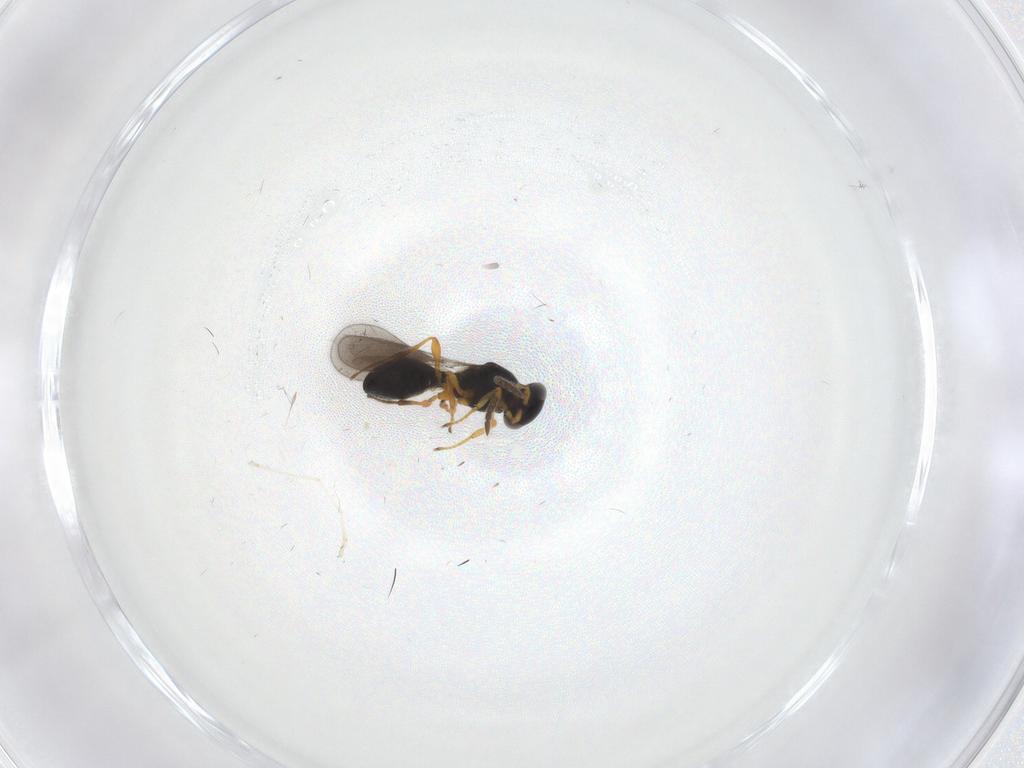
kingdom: Animalia
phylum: Arthropoda
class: Insecta
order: Hymenoptera
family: Platygastridae
